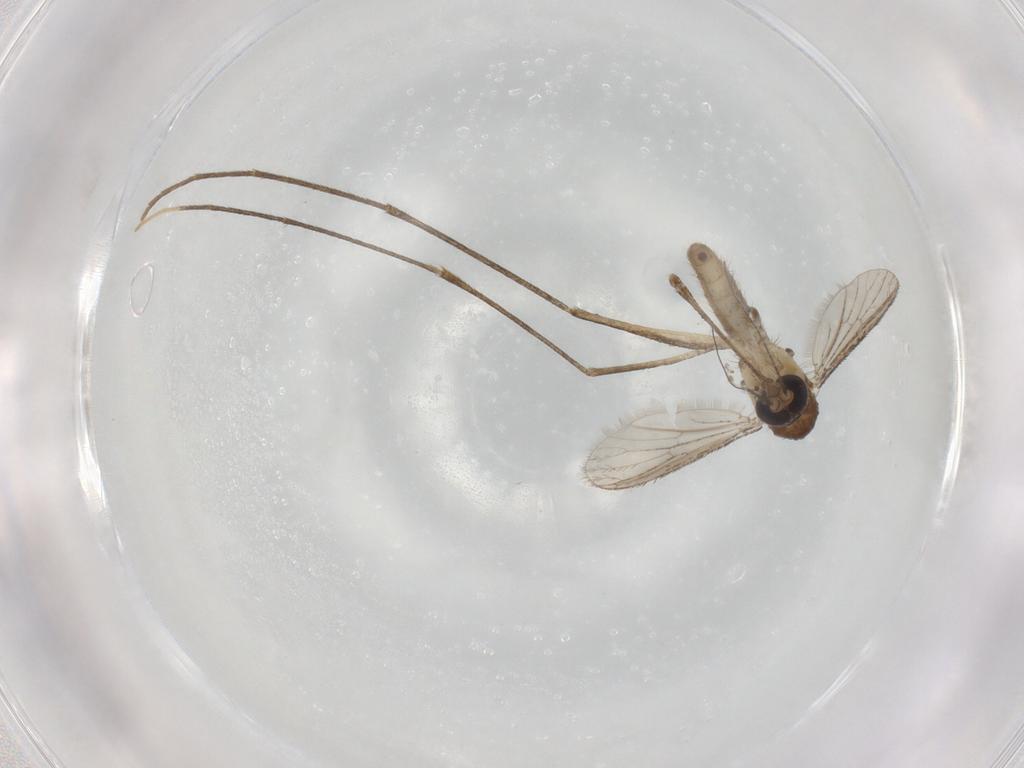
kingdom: Animalia
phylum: Arthropoda
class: Insecta
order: Diptera
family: Culicidae
